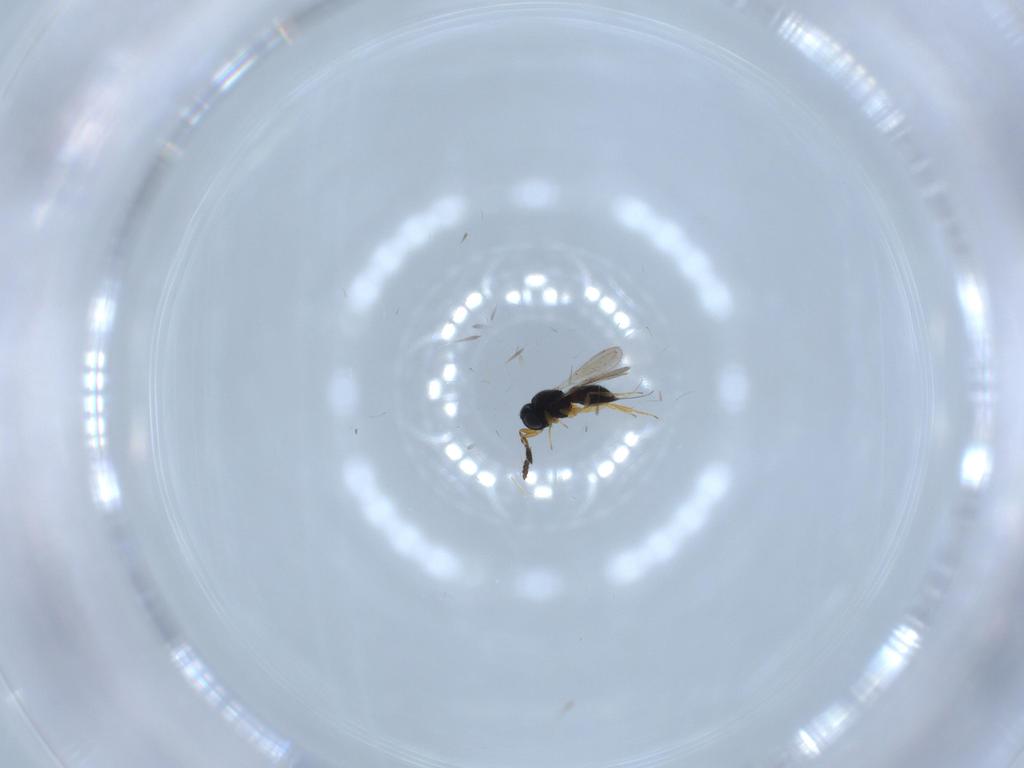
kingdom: Animalia
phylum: Arthropoda
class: Insecta
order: Hymenoptera
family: Scelionidae
